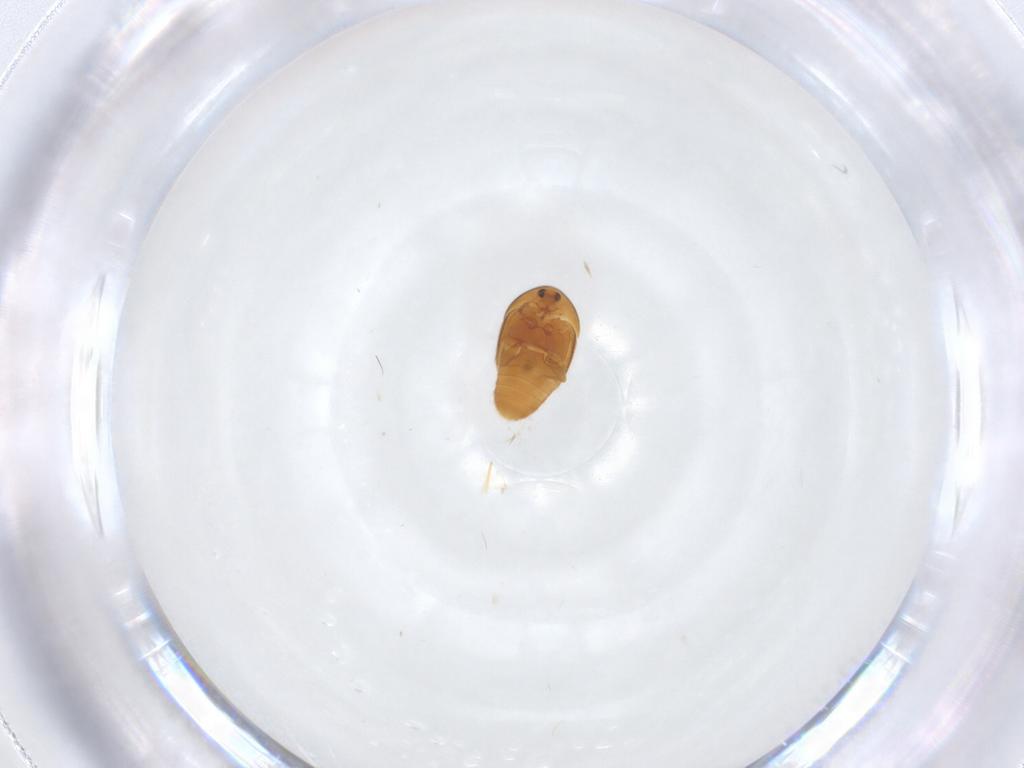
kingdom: Animalia
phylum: Arthropoda
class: Insecta
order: Coleoptera
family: Corylophidae
